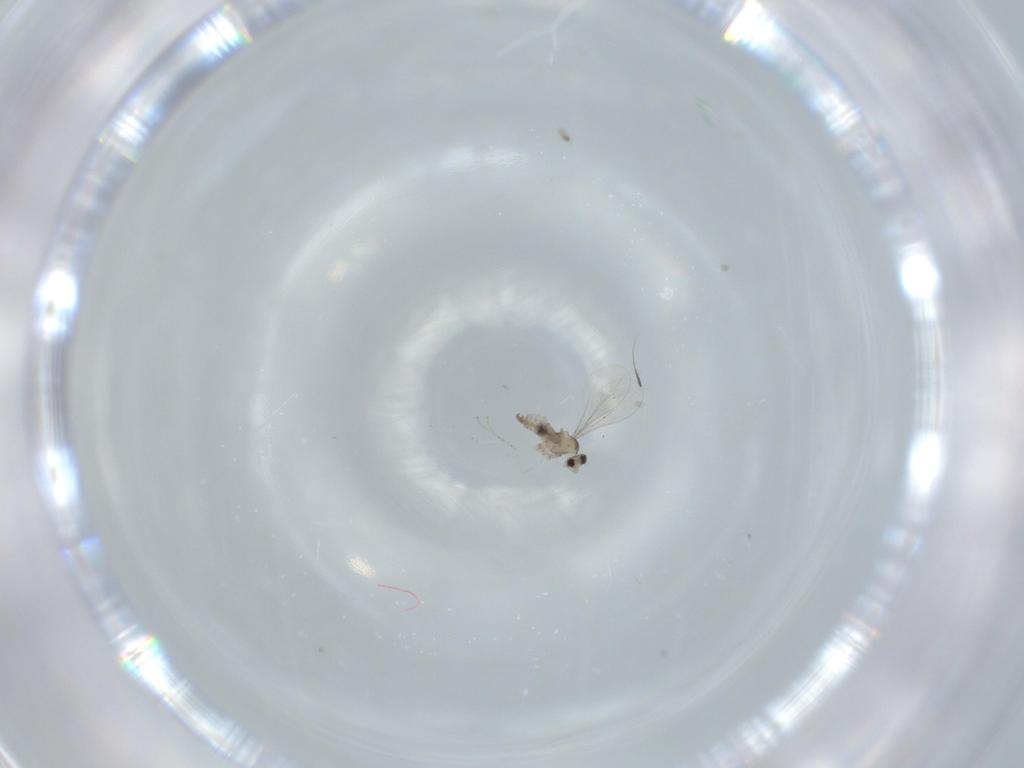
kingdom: Animalia
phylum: Arthropoda
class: Insecta
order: Diptera
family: Cecidomyiidae
